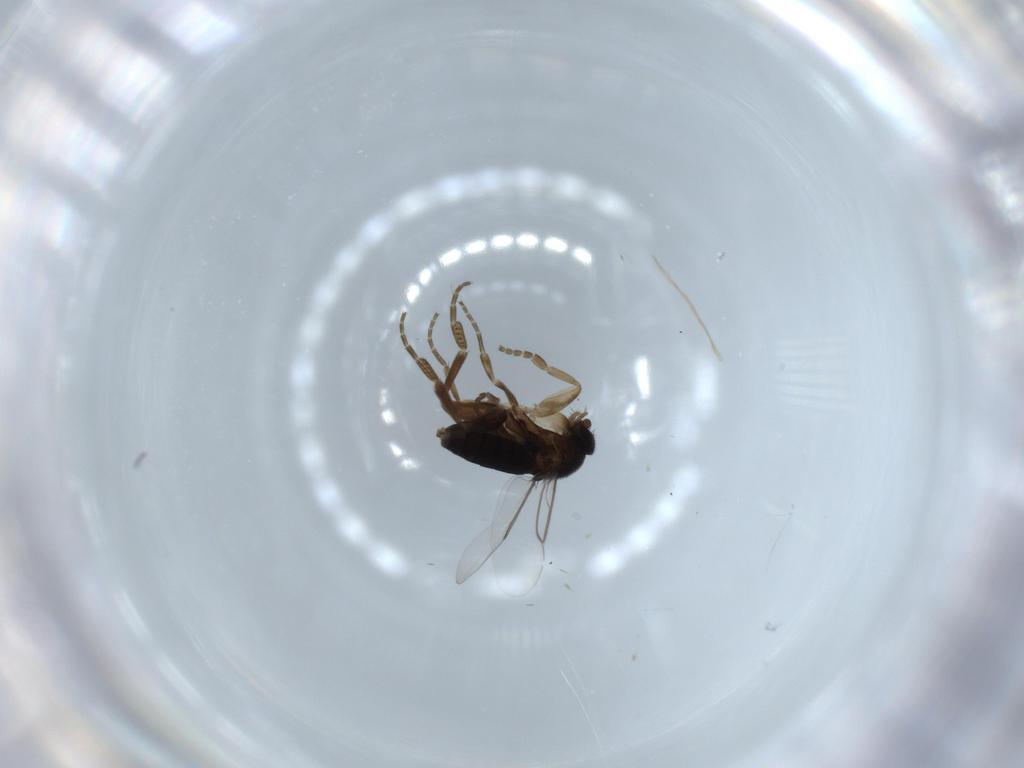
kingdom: Animalia
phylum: Arthropoda
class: Insecta
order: Diptera
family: Phoridae
